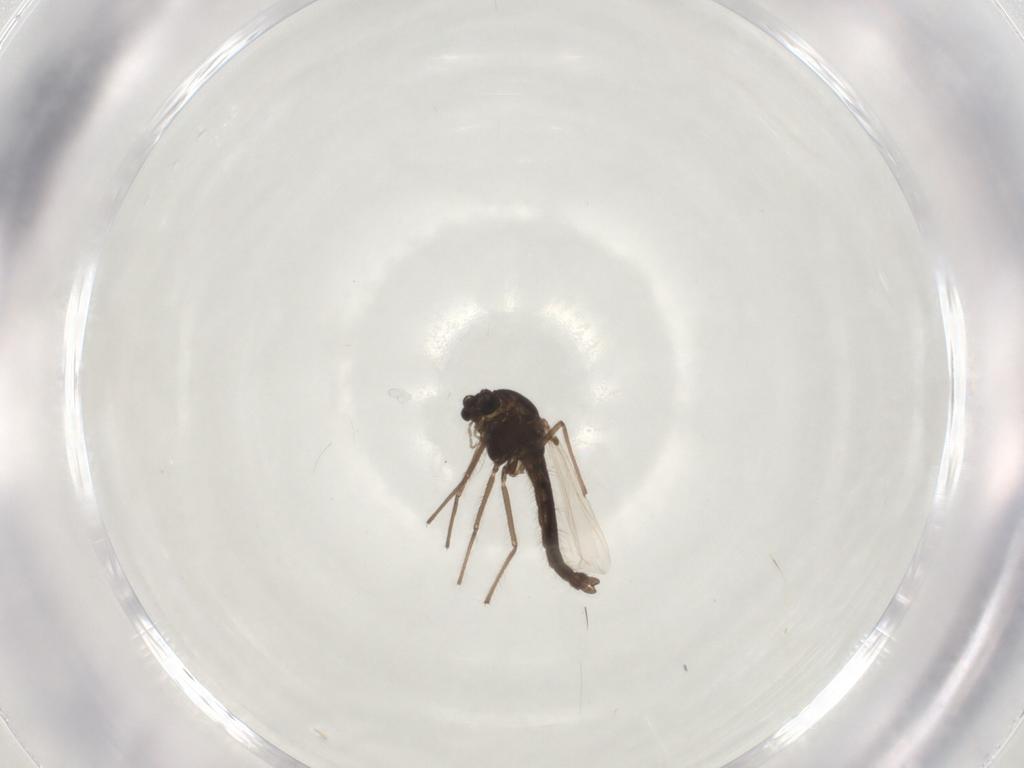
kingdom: Animalia
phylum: Arthropoda
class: Insecta
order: Diptera
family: Chironomidae
